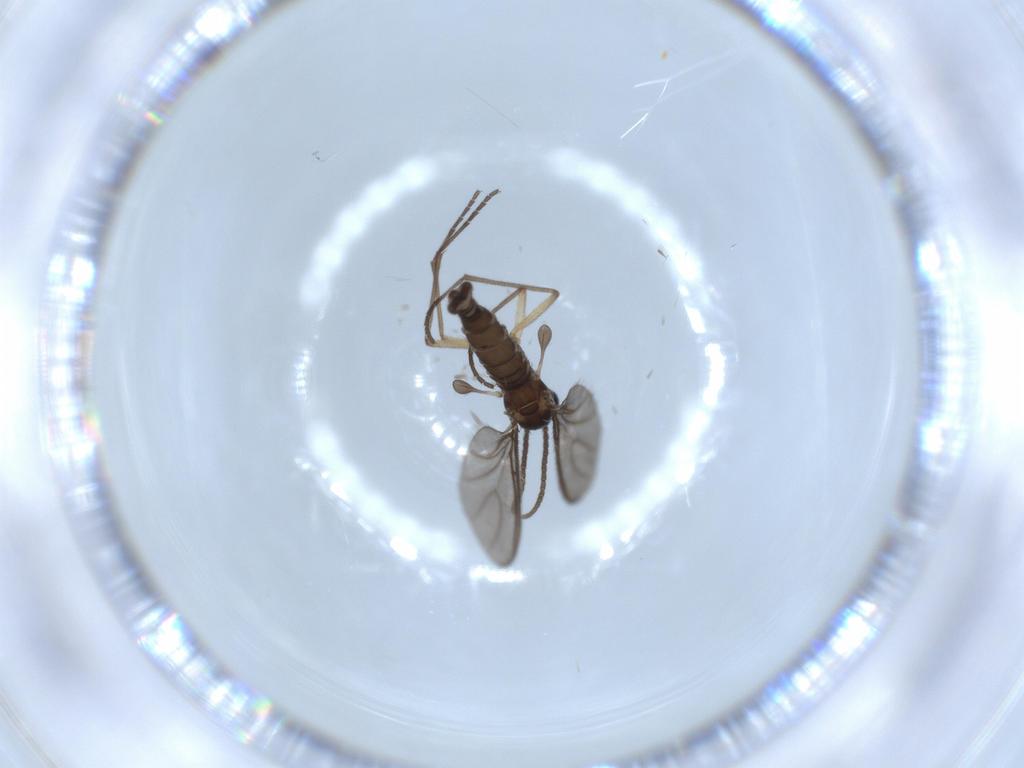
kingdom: Animalia
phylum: Arthropoda
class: Insecta
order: Diptera
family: Sciaridae
